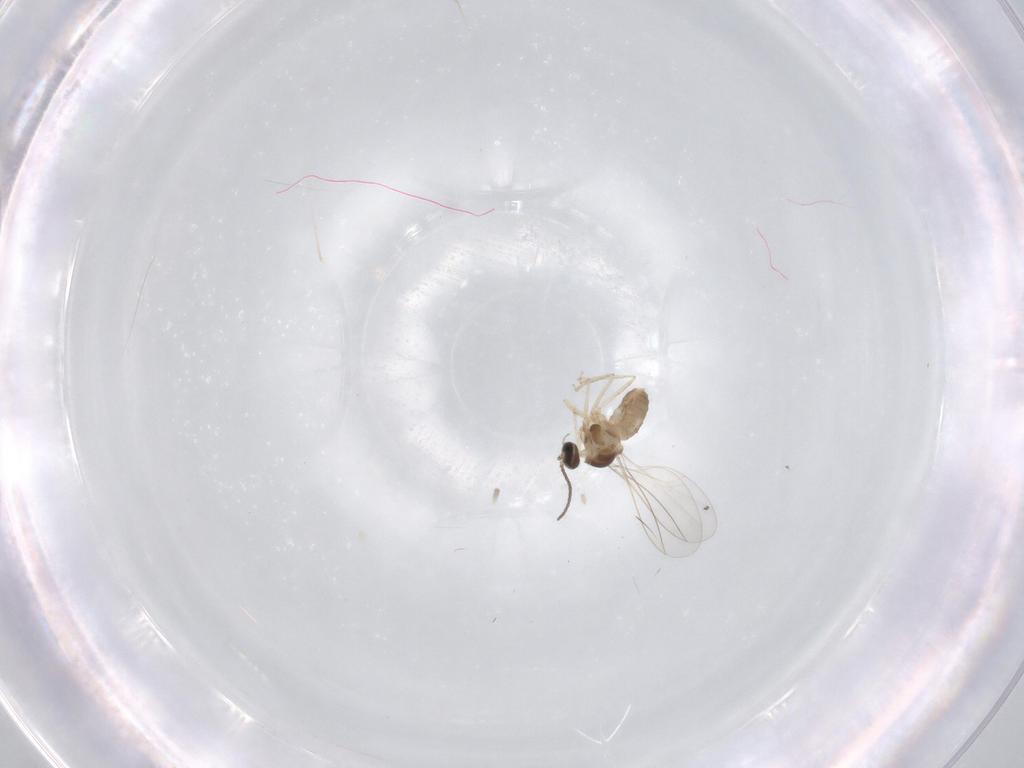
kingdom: Animalia
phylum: Arthropoda
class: Insecta
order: Diptera
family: Cecidomyiidae
